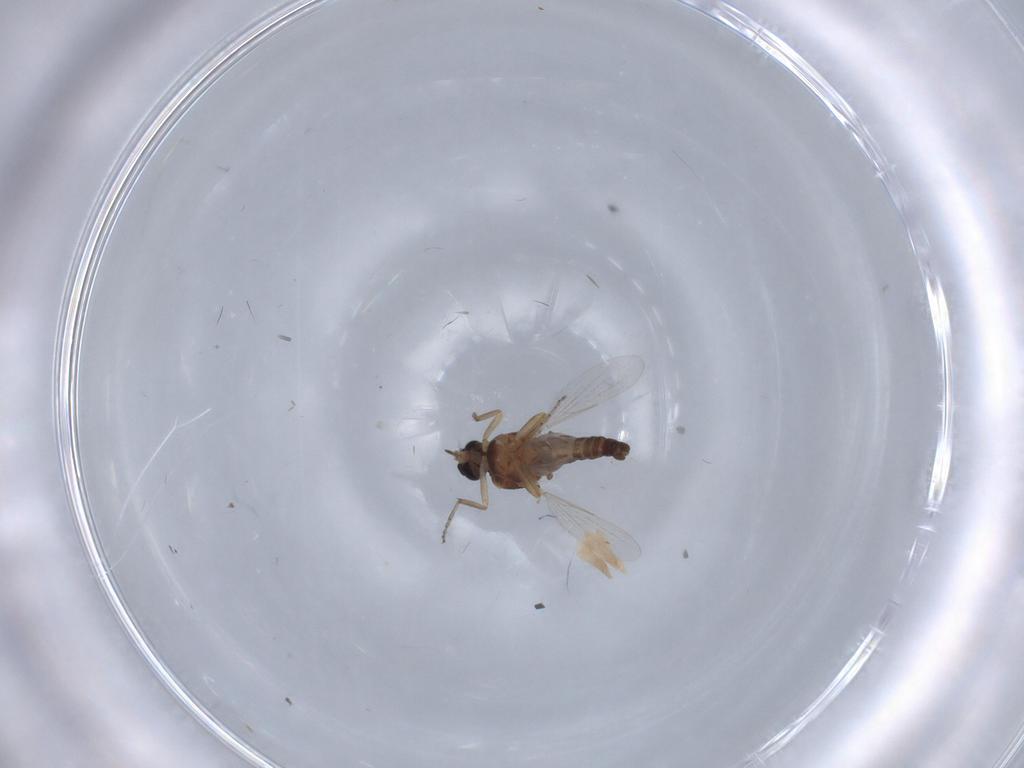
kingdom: Animalia
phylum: Arthropoda
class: Insecta
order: Diptera
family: Ceratopogonidae
